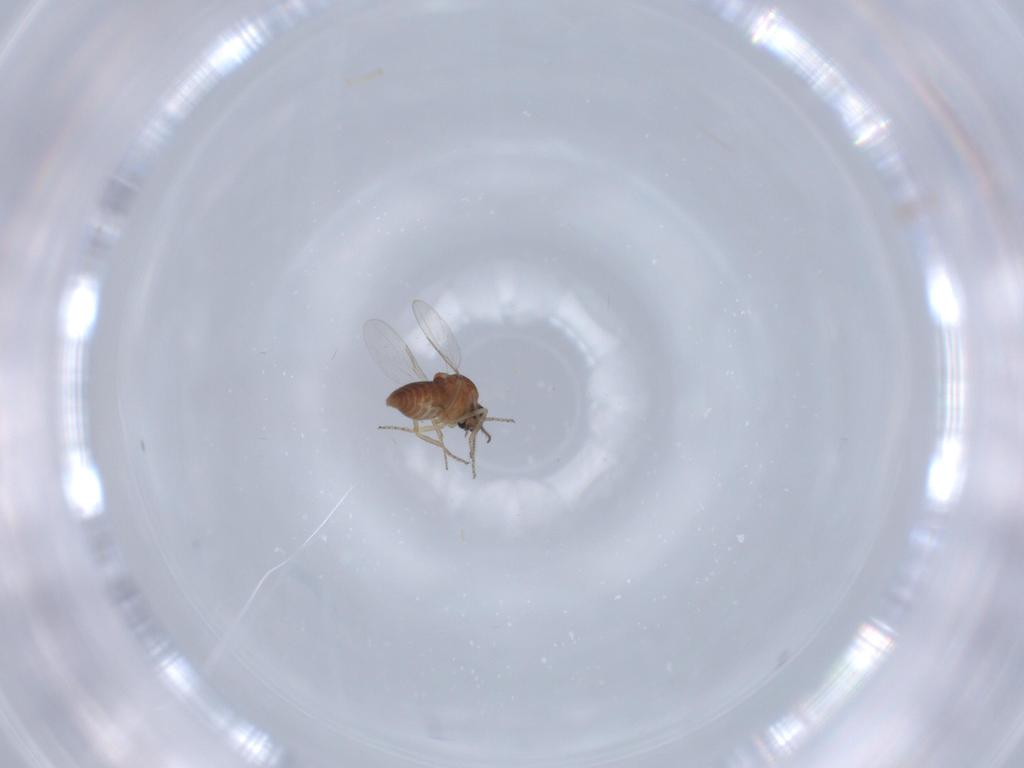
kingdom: Animalia
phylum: Arthropoda
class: Insecta
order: Diptera
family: Ceratopogonidae
